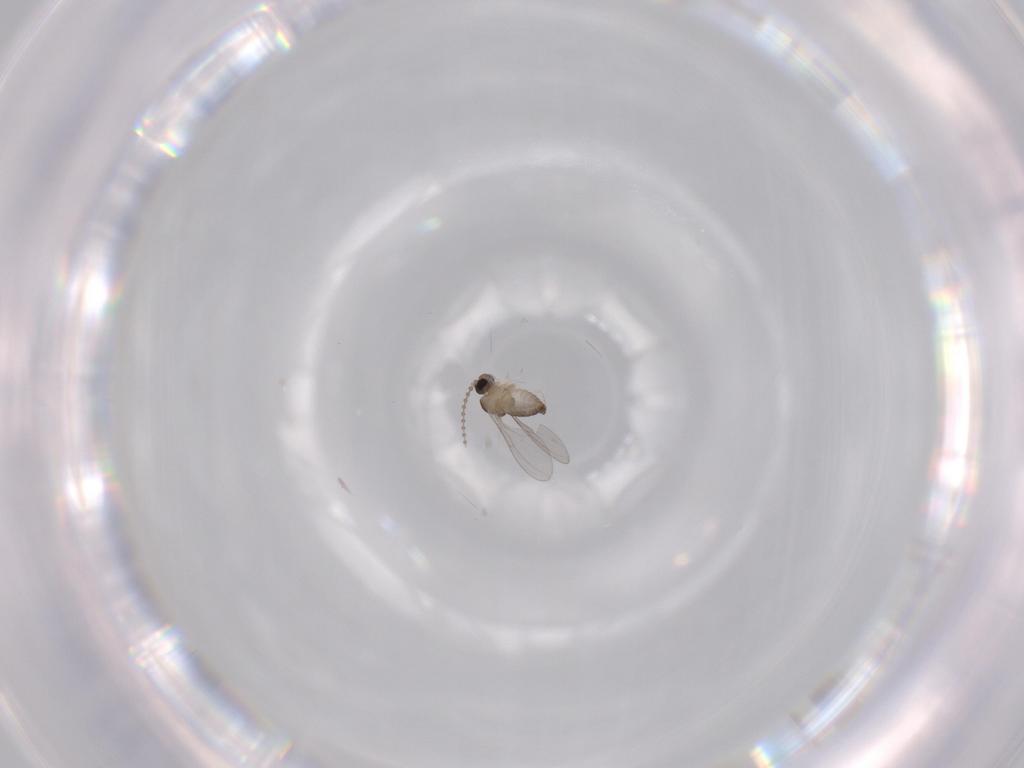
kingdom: Animalia
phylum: Arthropoda
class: Insecta
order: Diptera
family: Cecidomyiidae
